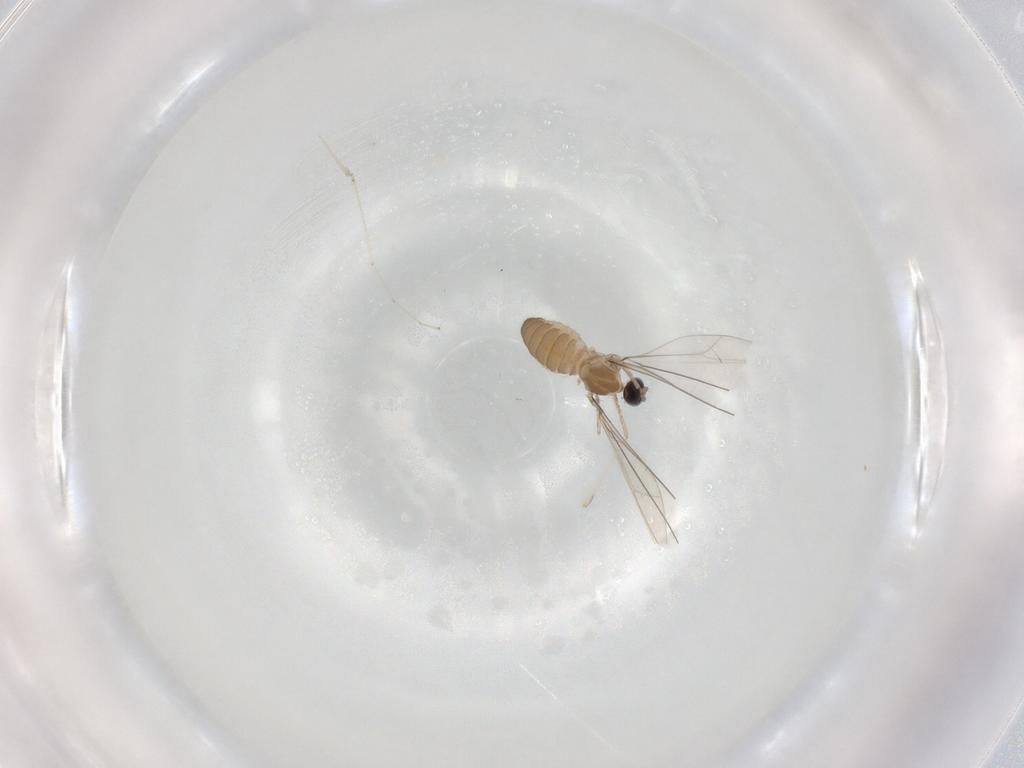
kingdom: Animalia
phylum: Arthropoda
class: Insecta
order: Diptera
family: Cecidomyiidae
